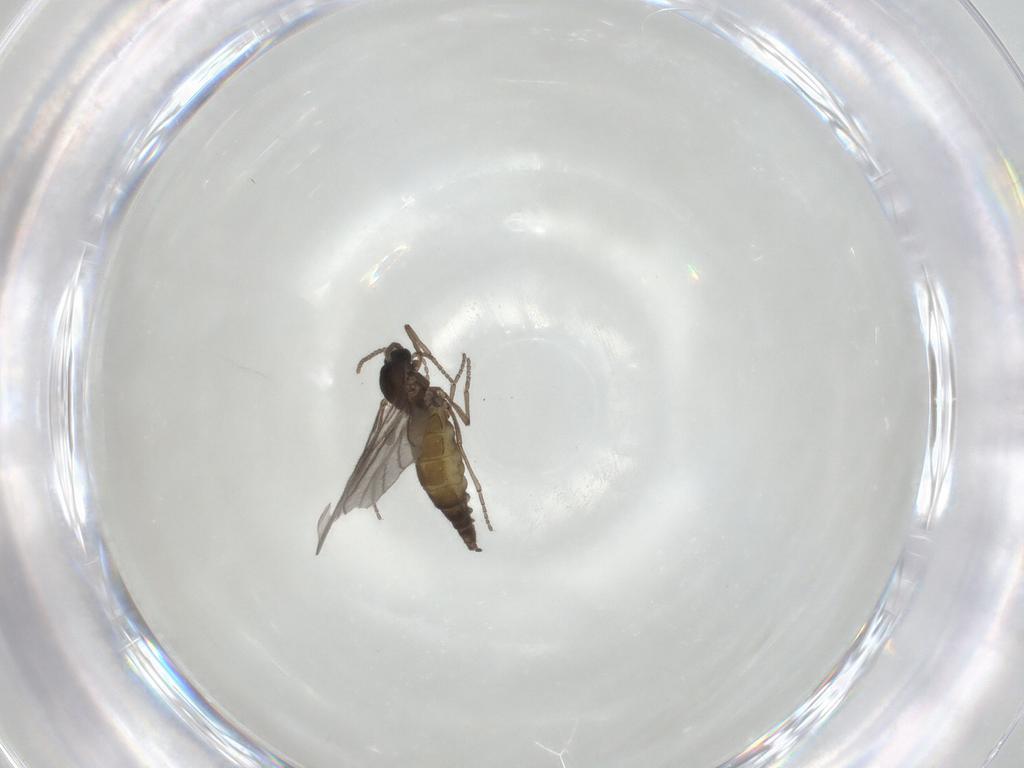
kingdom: Animalia
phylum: Arthropoda
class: Insecta
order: Diptera
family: Sciaridae
